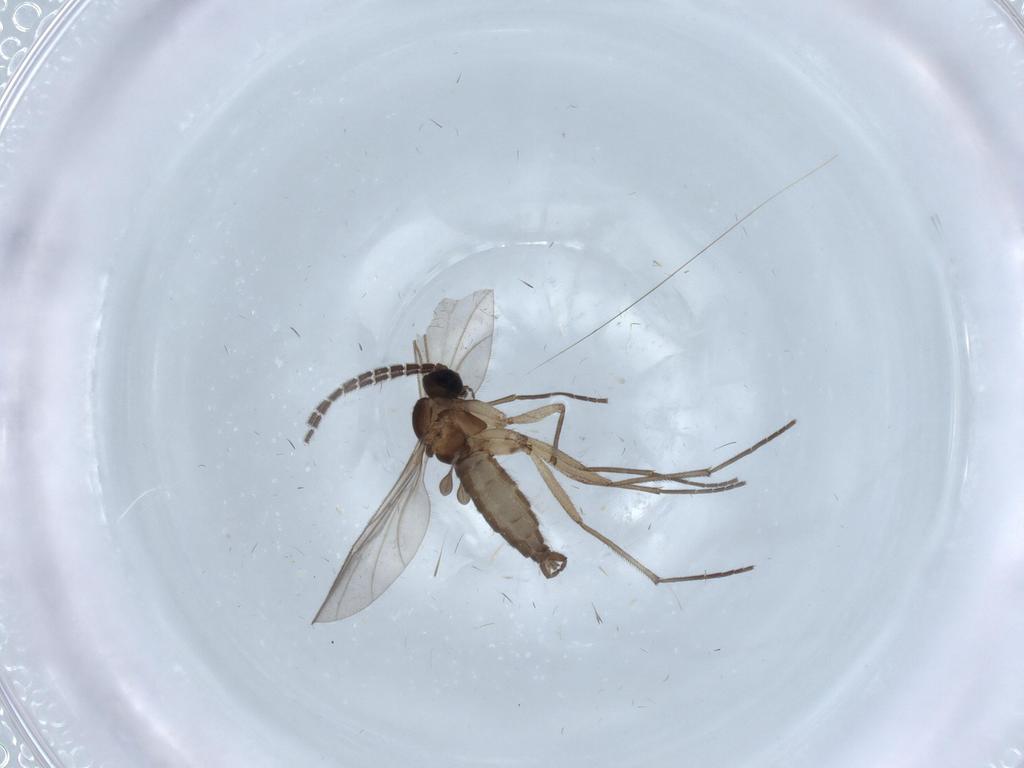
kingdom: Animalia
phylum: Arthropoda
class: Insecta
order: Diptera
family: Sciaridae
